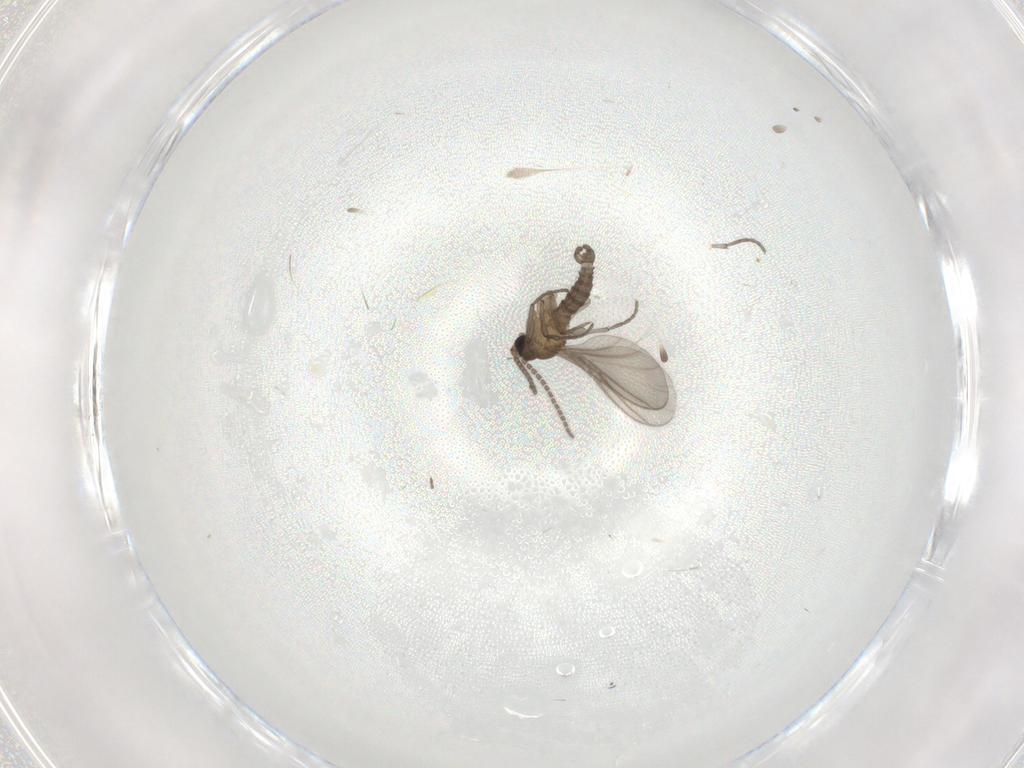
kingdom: Animalia
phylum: Arthropoda
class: Insecta
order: Diptera
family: Sciaridae
